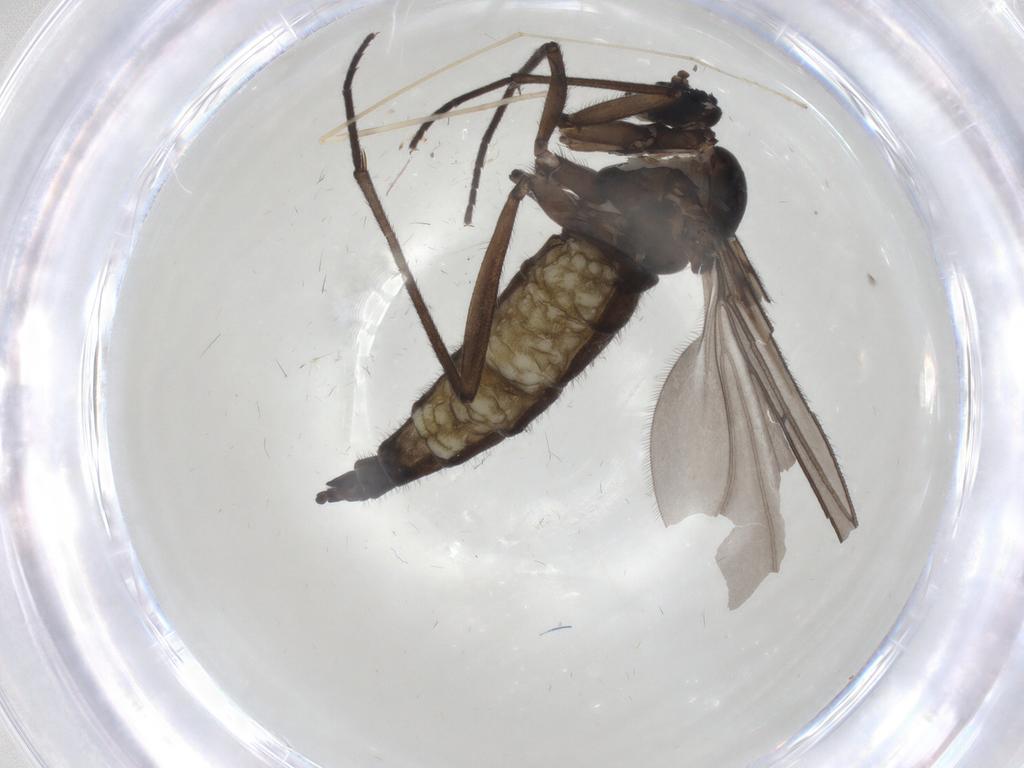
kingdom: Animalia
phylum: Arthropoda
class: Insecta
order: Diptera
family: Sciaridae
